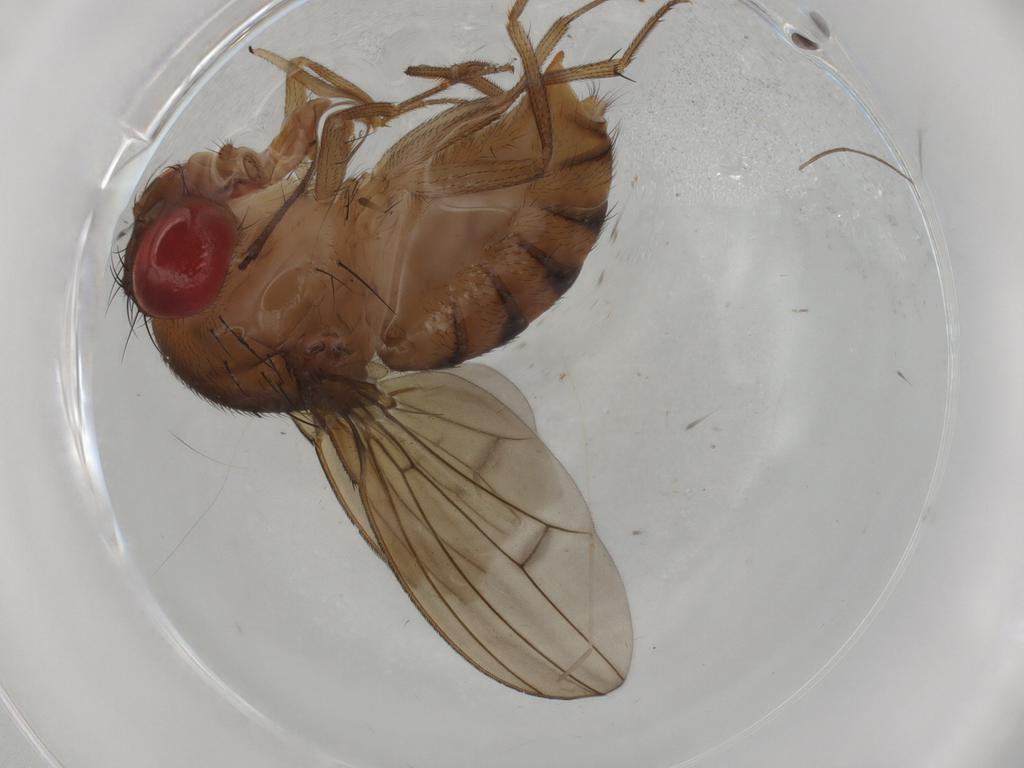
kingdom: Animalia
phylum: Arthropoda
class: Insecta
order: Diptera
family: Drosophilidae
